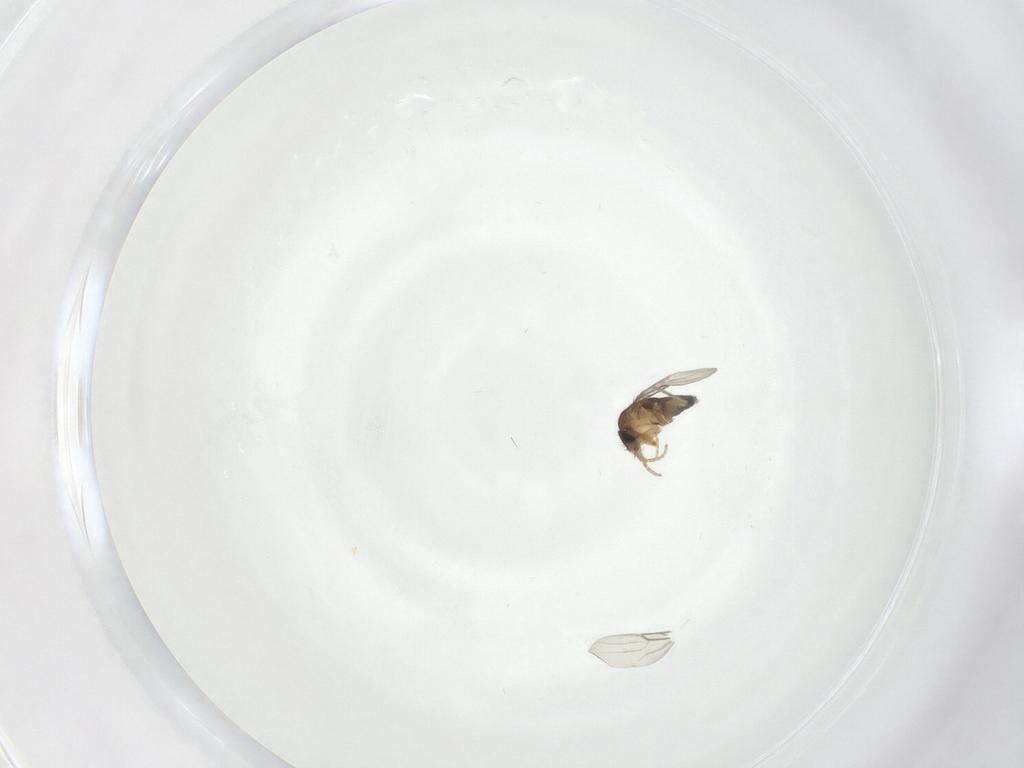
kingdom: Animalia
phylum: Arthropoda
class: Insecta
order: Diptera
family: Phoridae
